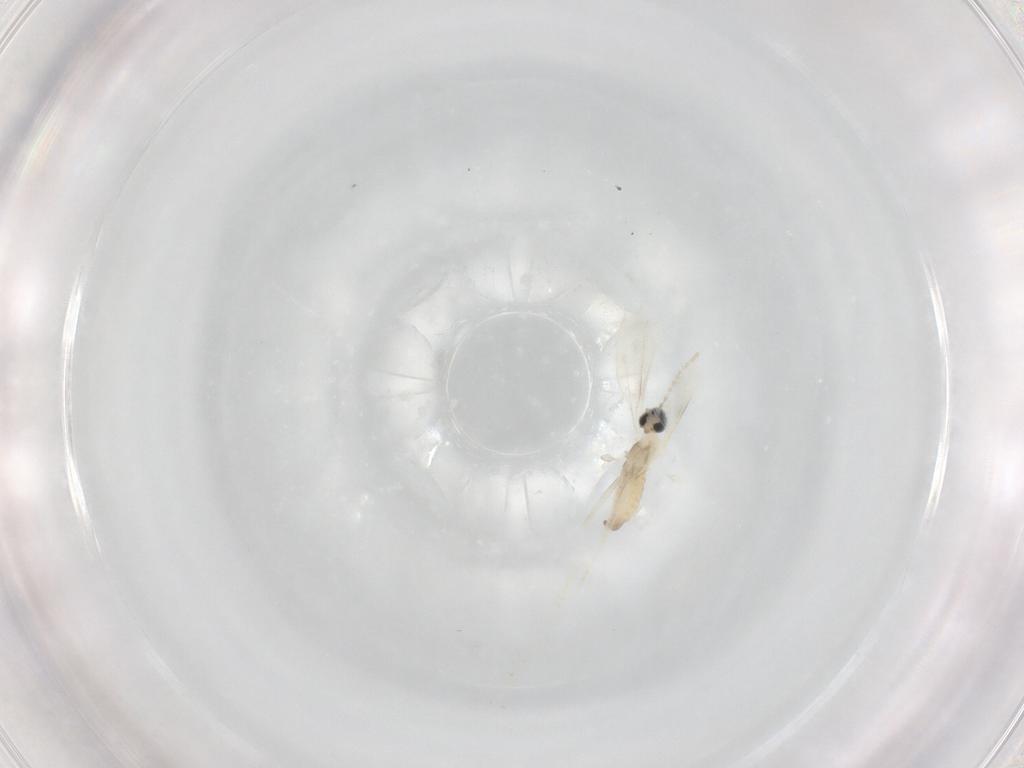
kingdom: Animalia
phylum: Arthropoda
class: Insecta
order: Diptera
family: Cecidomyiidae
